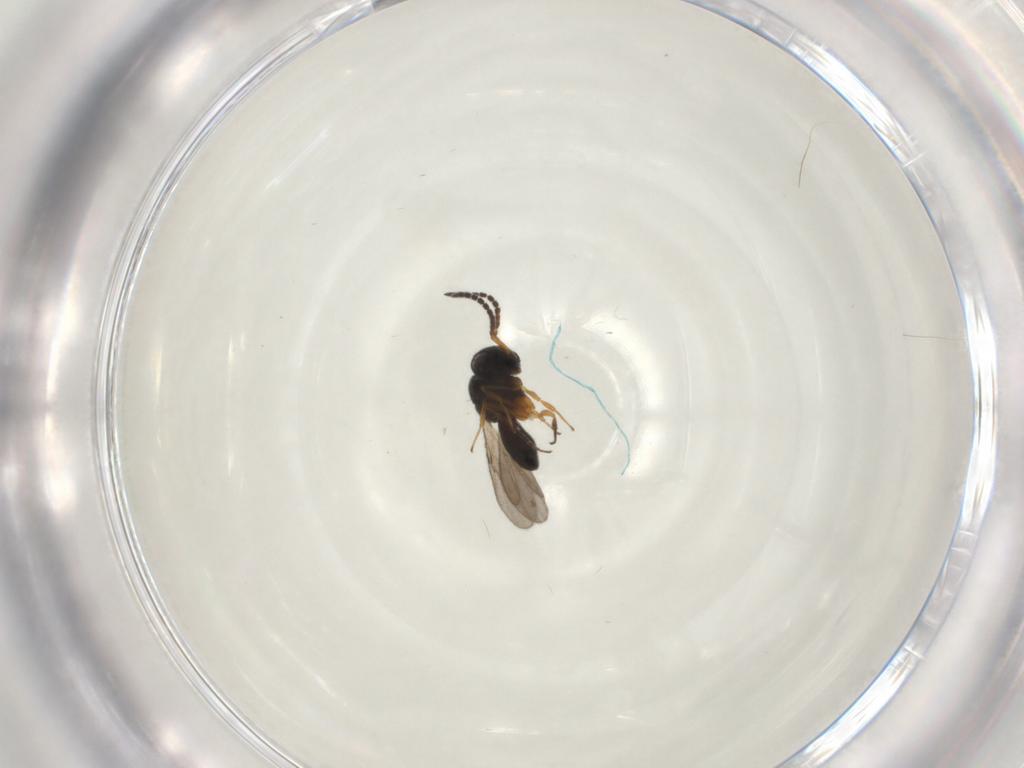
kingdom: Animalia
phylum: Arthropoda
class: Insecta
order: Hymenoptera
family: Scelionidae
